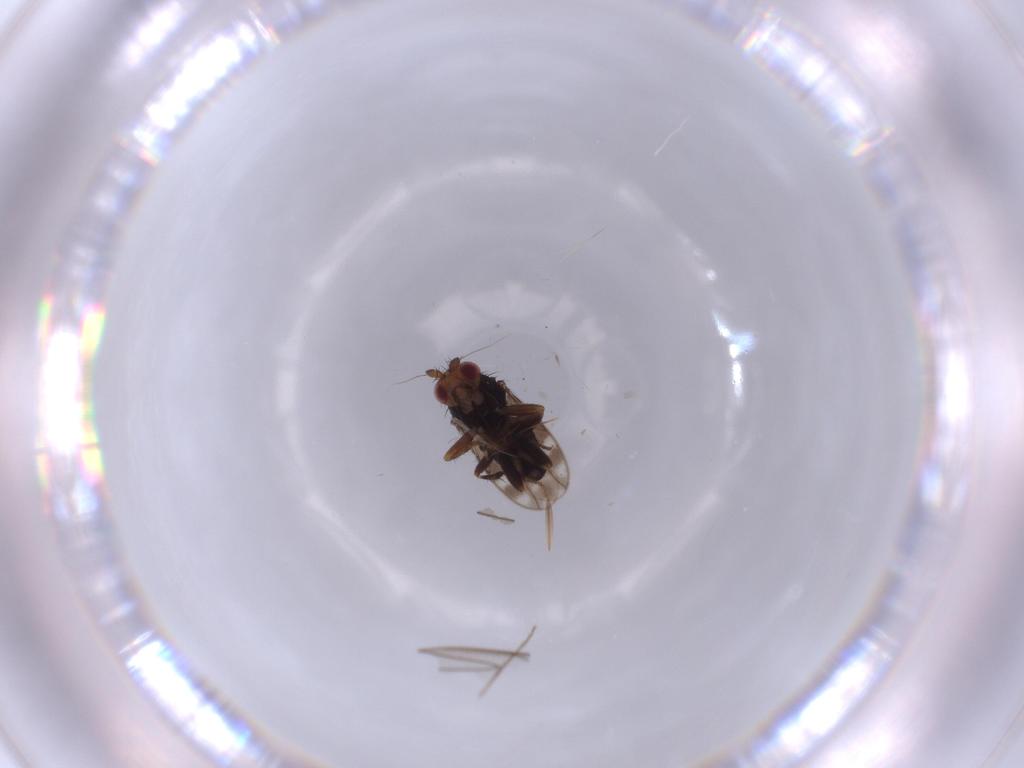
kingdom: Animalia
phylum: Arthropoda
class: Insecta
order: Diptera
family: Sphaeroceridae
